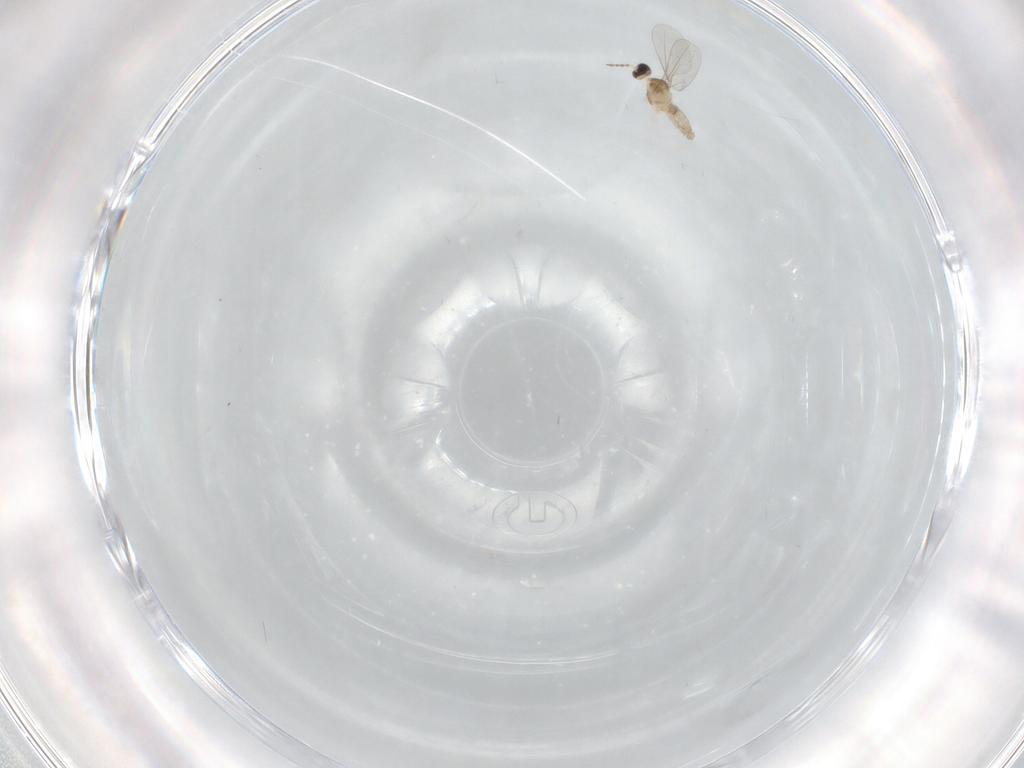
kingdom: Animalia
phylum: Arthropoda
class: Insecta
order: Diptera
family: Cecidomyiidae
